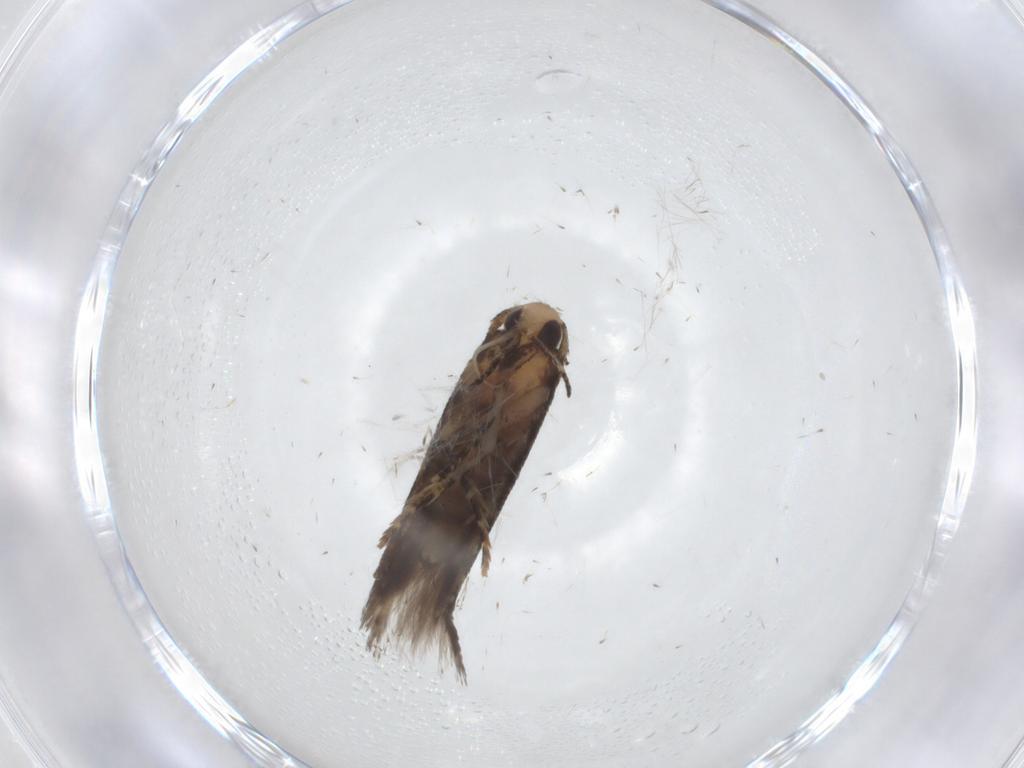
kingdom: Animalia
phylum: Arthropoda
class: Insecta
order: Lepidoptera
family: Cosmopterigidae
